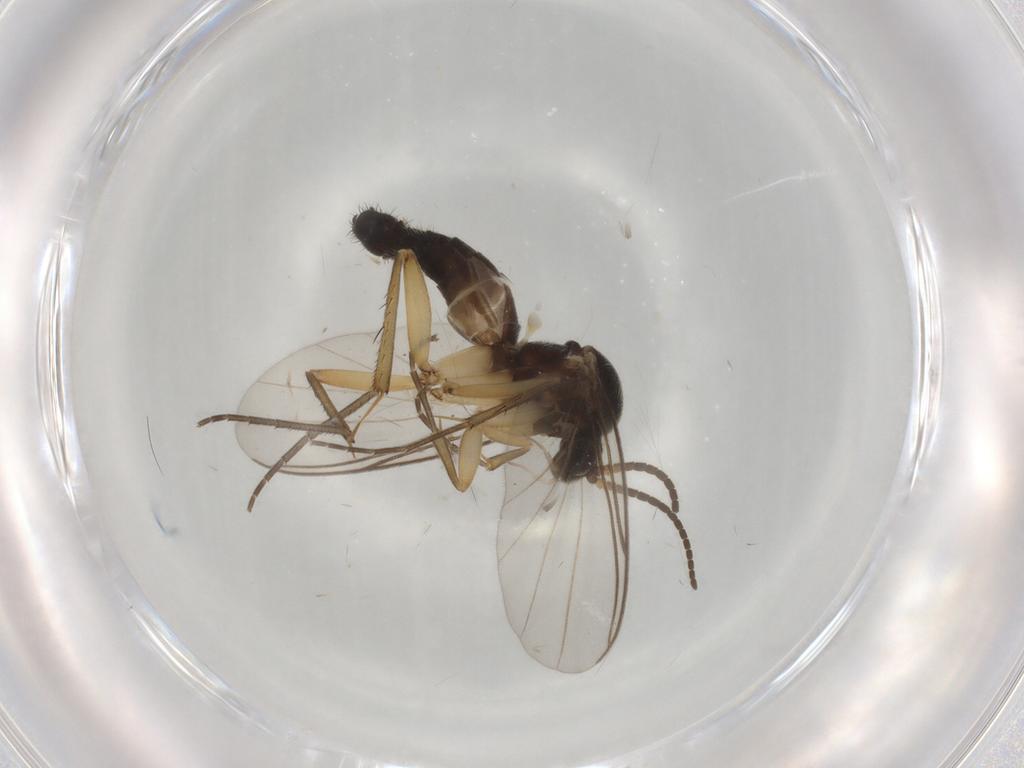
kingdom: Animalia
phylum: Arthropoda
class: Insecta
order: Diptera
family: Mycetophilidae
